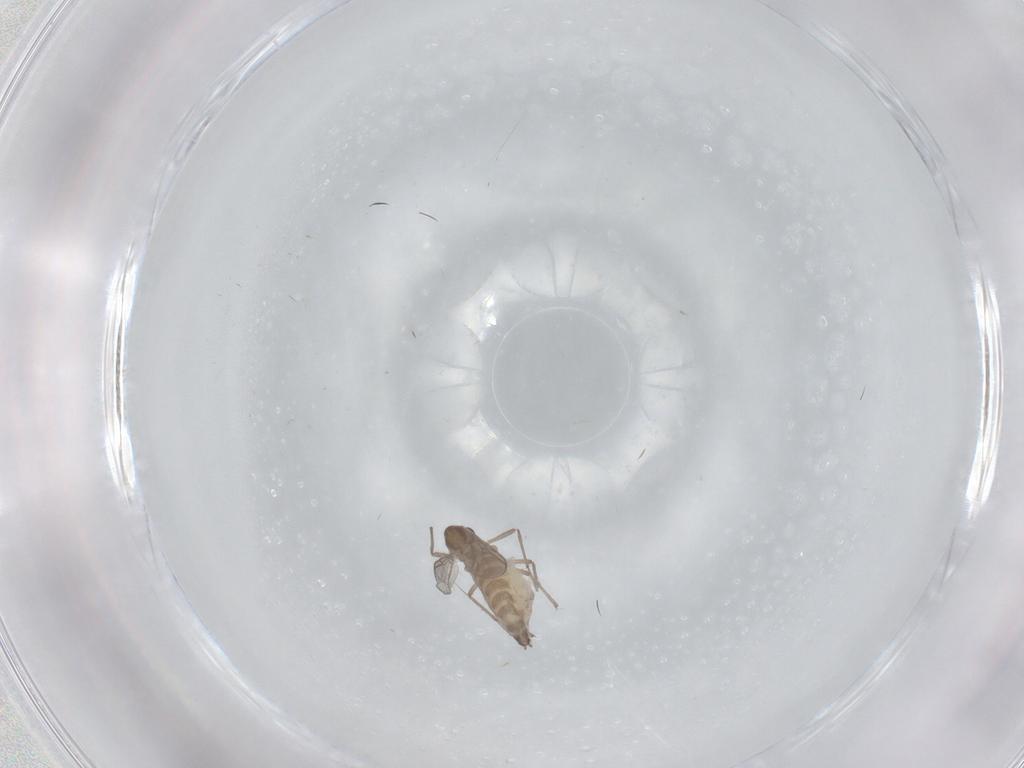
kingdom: Animalia
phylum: Arthropoda
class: Insecta
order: Diptera
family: Chironomidae
